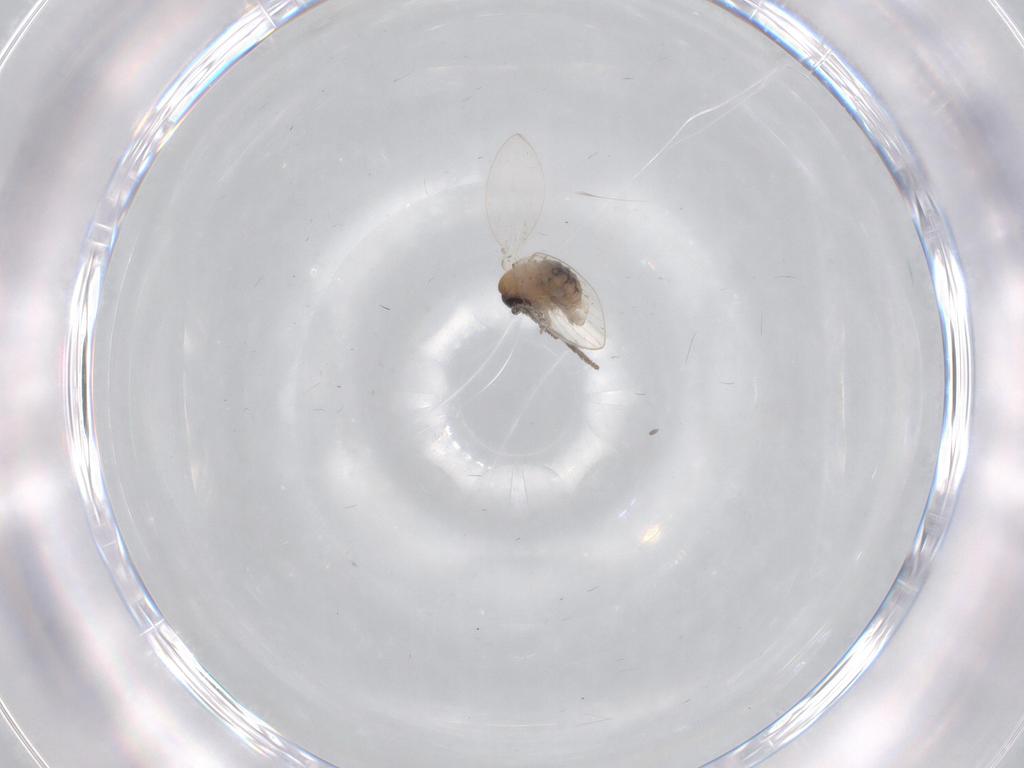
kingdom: Animalia
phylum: Arthropoda
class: Insecta
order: Diptera
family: Psychodidae
